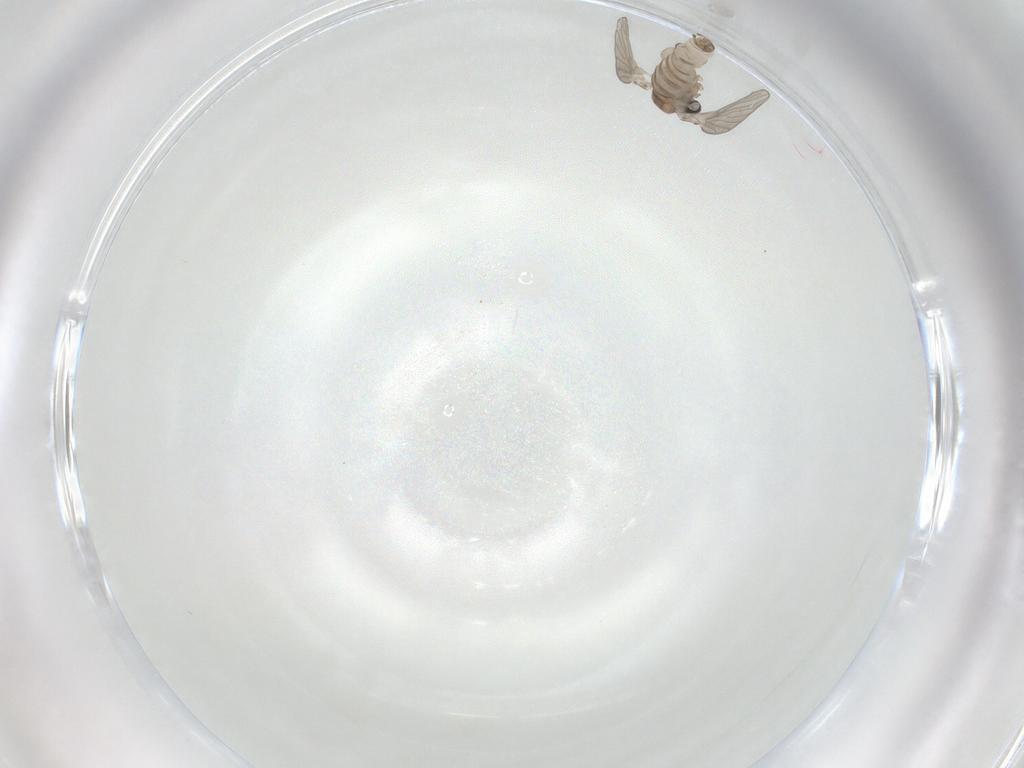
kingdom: Animalia
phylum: Arthropoda
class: Insecta
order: Diptera
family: Psychodidae
